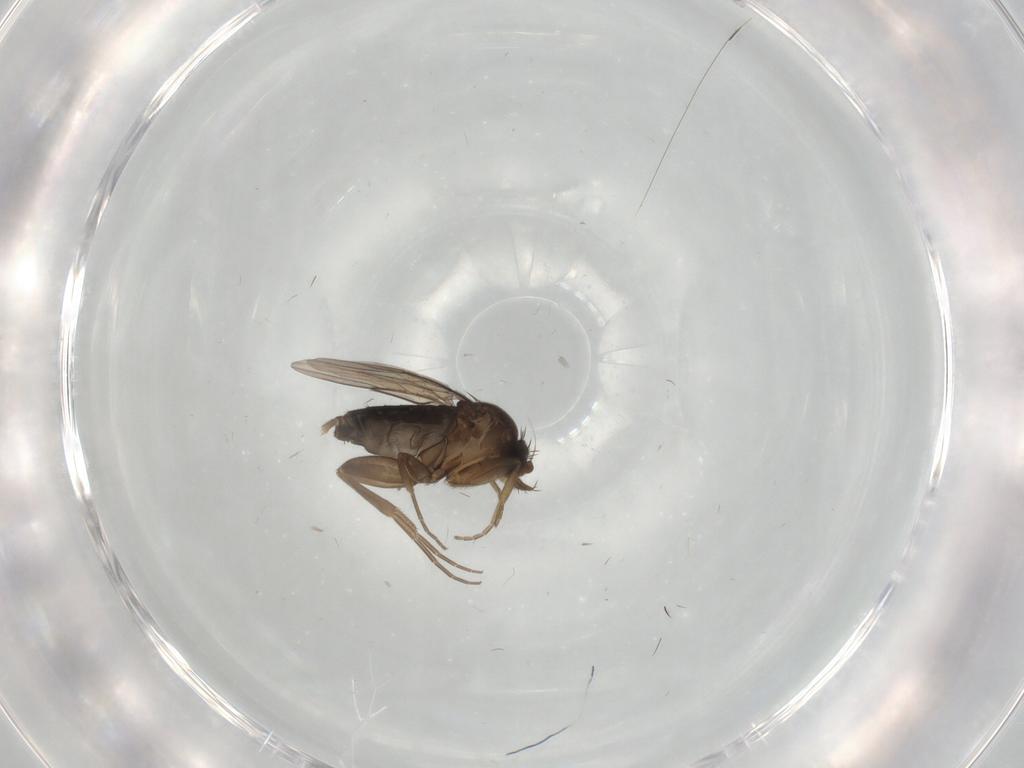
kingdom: Animalia
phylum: Arthropoda
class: Insecta
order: Diptera
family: Phoridae
